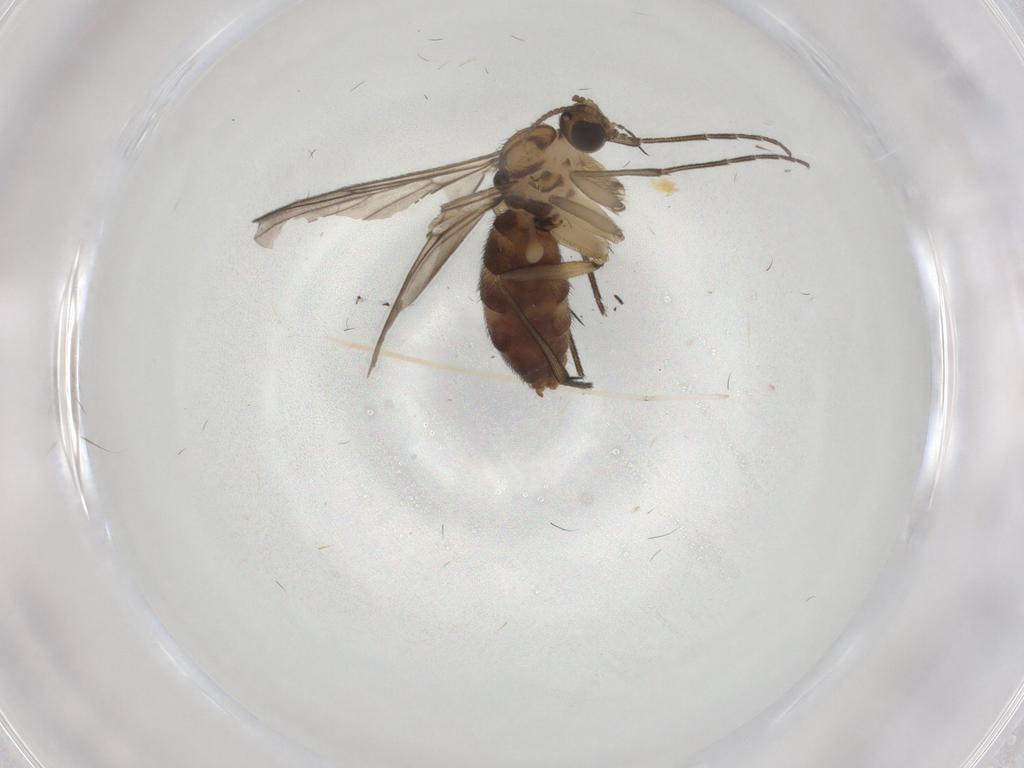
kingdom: Animalia
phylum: Arthropoda
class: Insecta
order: Diptera
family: Keroplatidae
